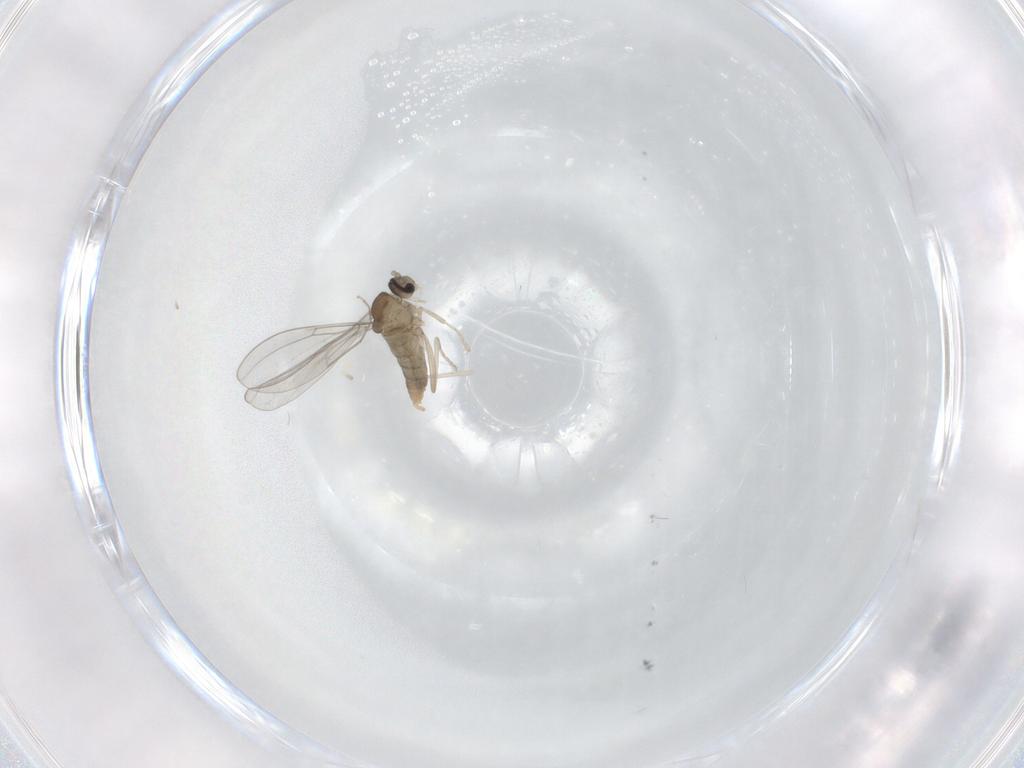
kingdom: Animalia
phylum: Arthropoda
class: Insecta
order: Diptera
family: Cecidomyiidae
